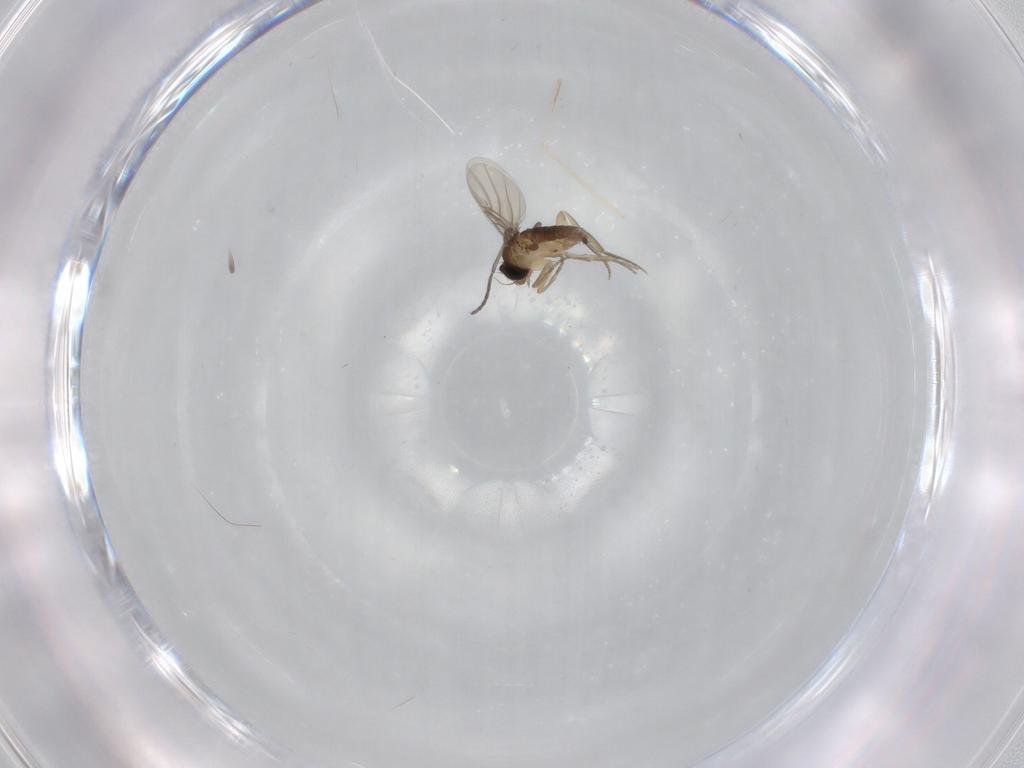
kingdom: Animalia
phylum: Arthropoda
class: Insecta
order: Diptera
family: Sciaridae
